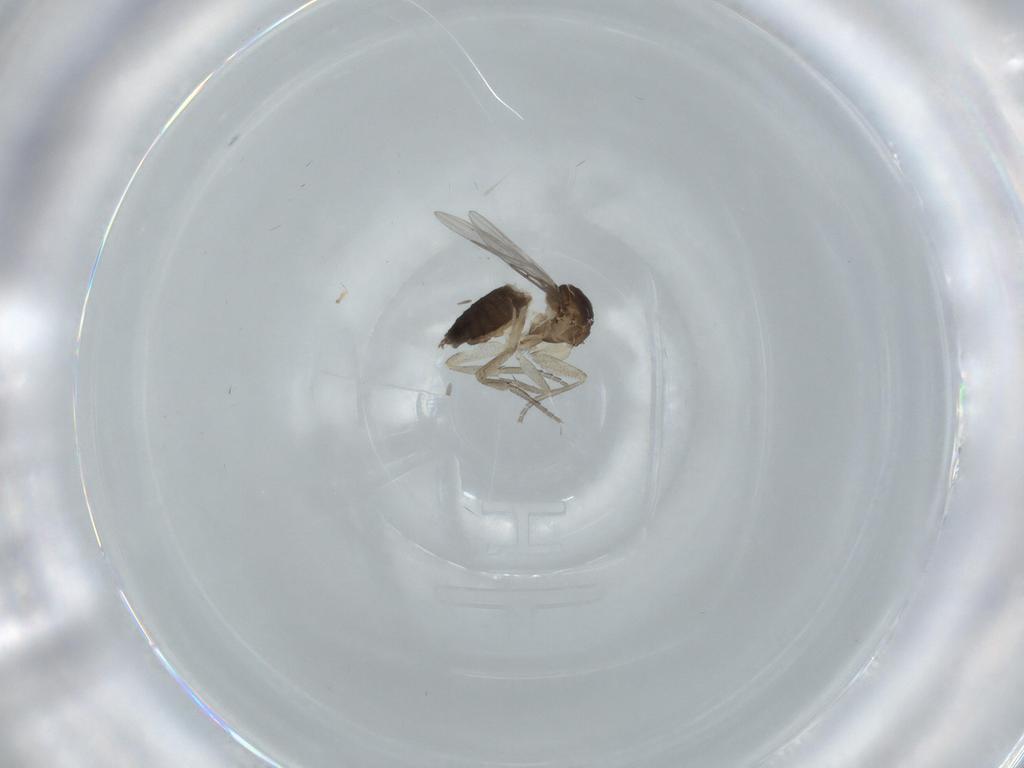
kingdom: Animalia
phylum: Arthropoda
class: Insecta
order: Diptera
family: Phoridae
